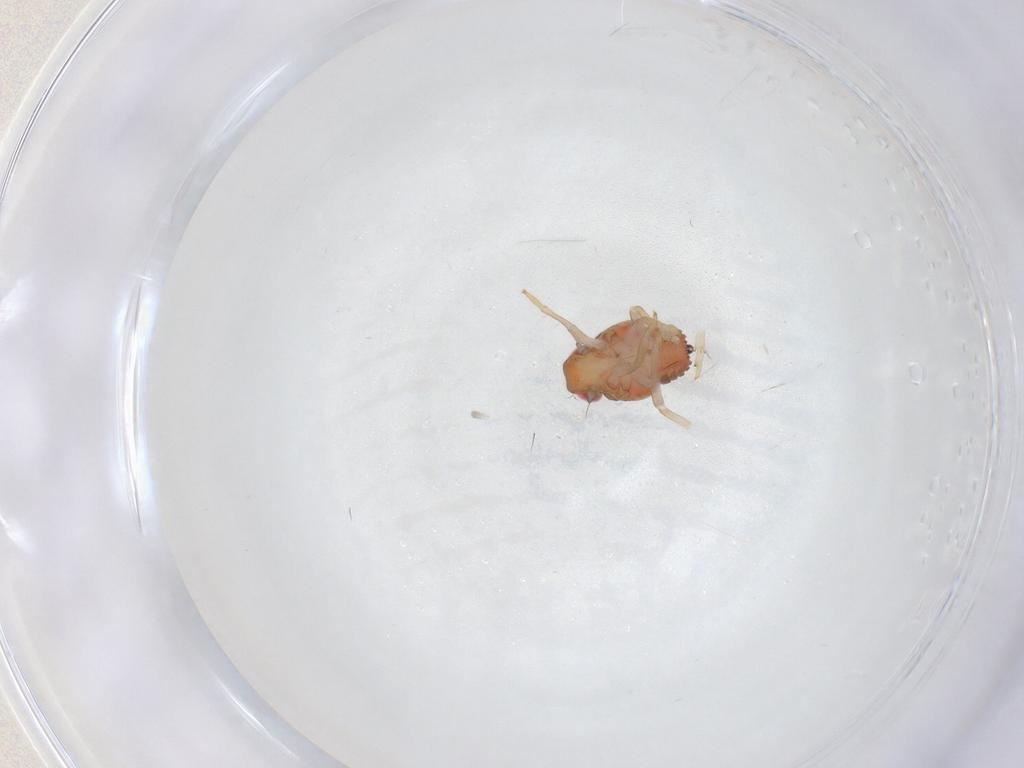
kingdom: Animalia
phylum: Arthropoda
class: Insecta
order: Hemiptera
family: Issidae
